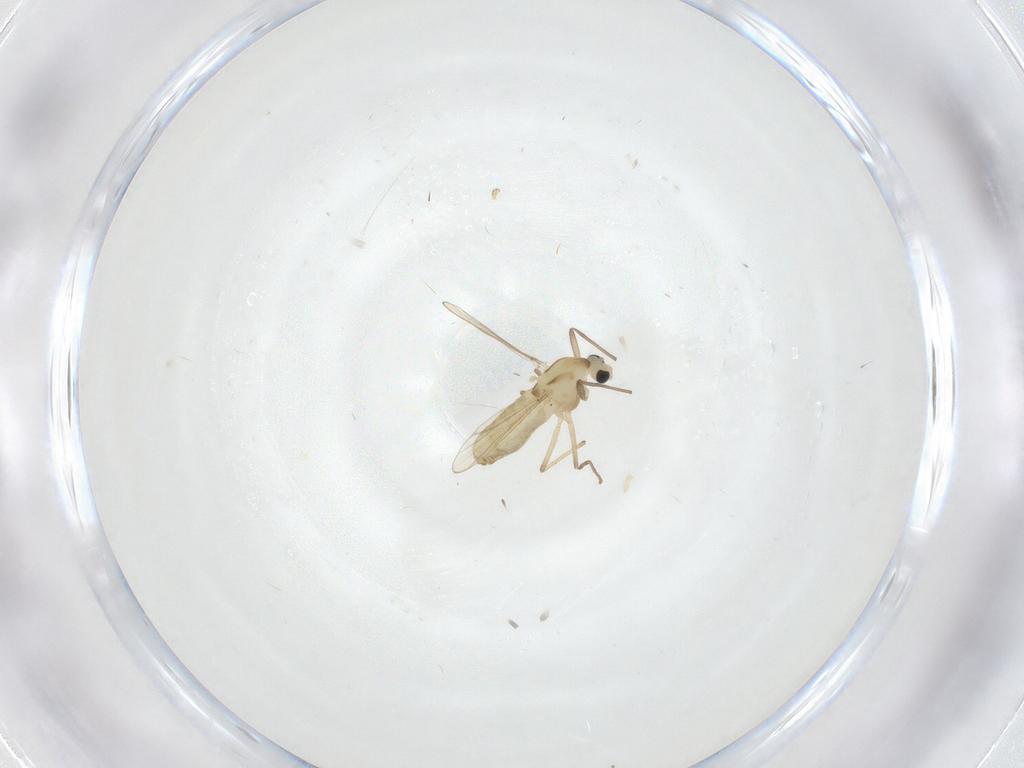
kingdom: Animalia
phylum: Arthropoda
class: Insecta
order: Diptera
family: Chironomidae
